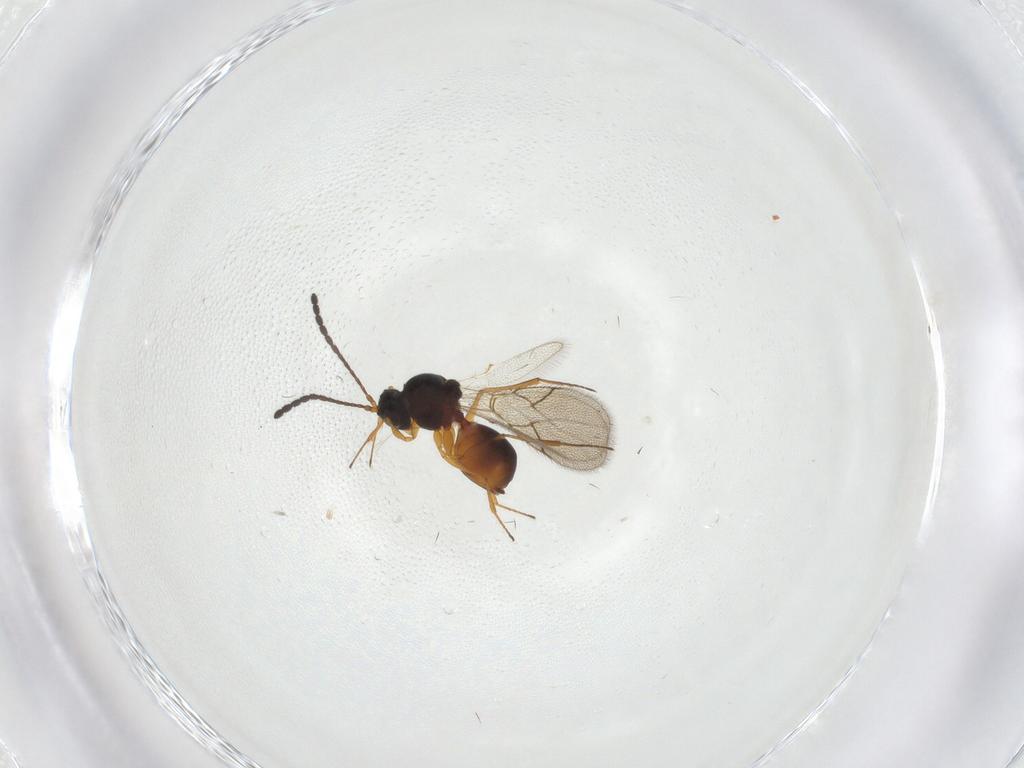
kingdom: Animalia
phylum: Arthropoda
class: Insecta
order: Hymenoptera
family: Figitidae
